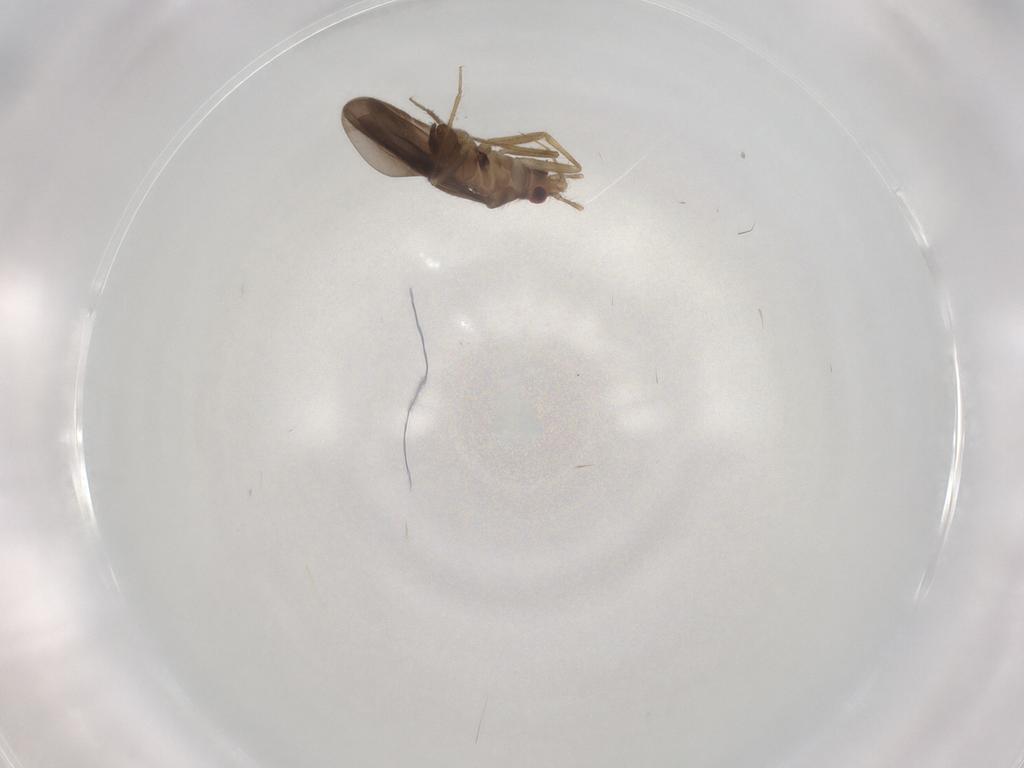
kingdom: Animalia
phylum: Arthropoda
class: Insecta
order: Hemiptera
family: Ceratocombidae
